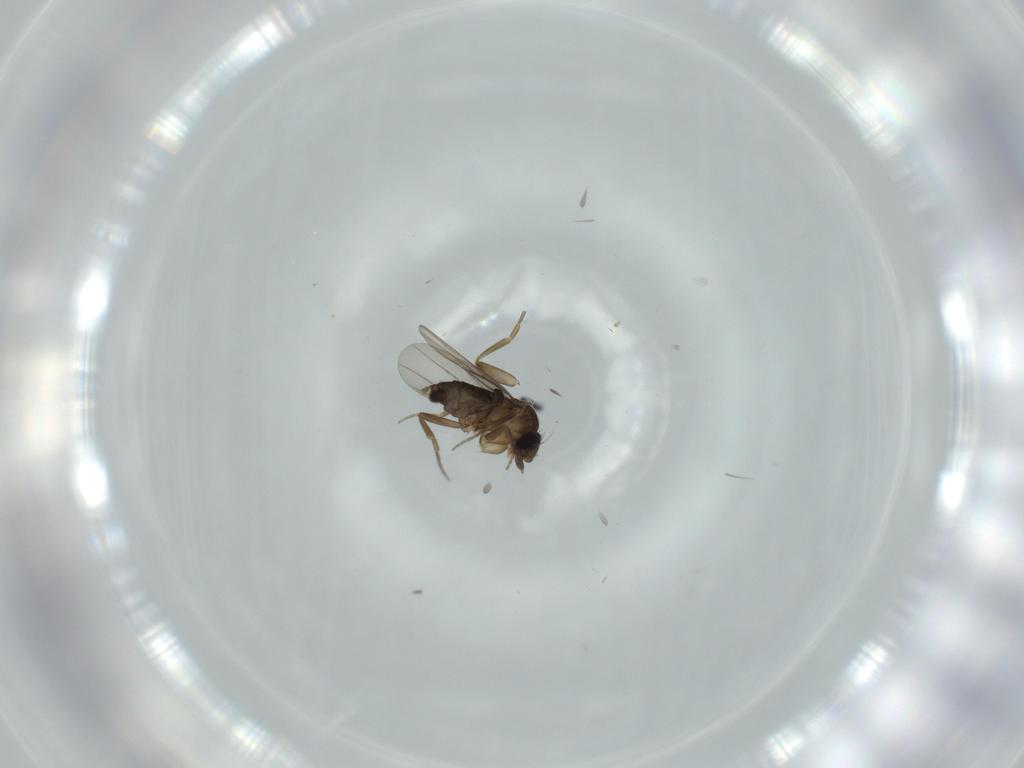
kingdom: Animalia
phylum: Arthropoda
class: Insecta
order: Diptera
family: Phoridae
